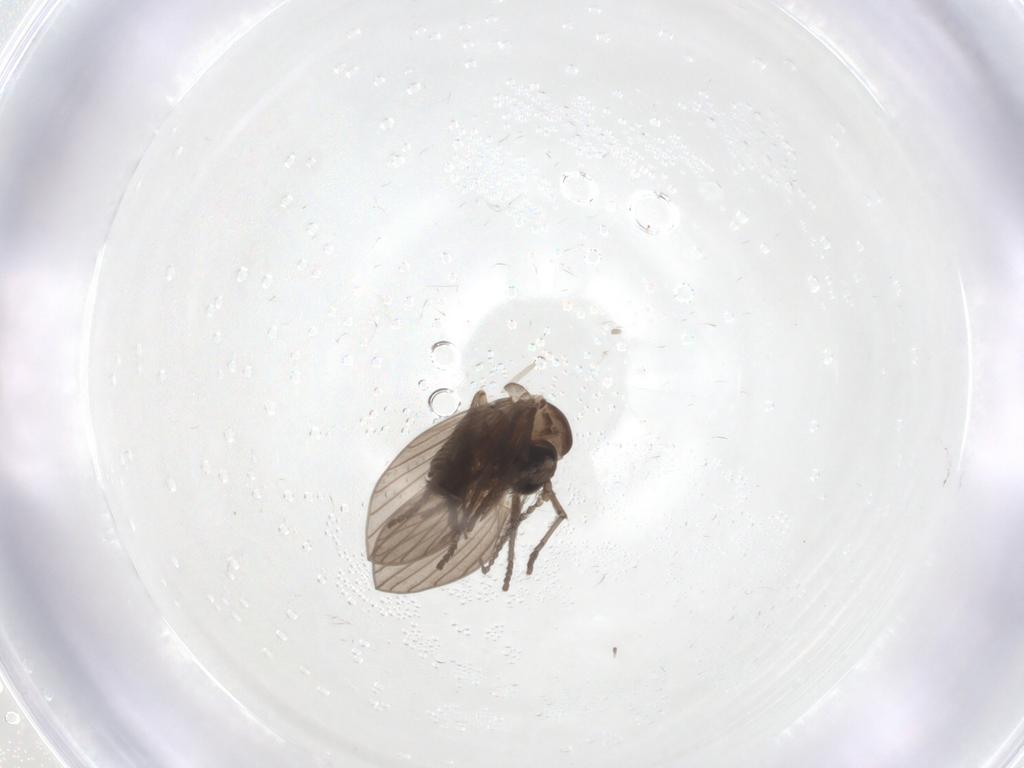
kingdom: Animalia
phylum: Arthropoda
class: Insecta
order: Diptera
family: Psychodidae
